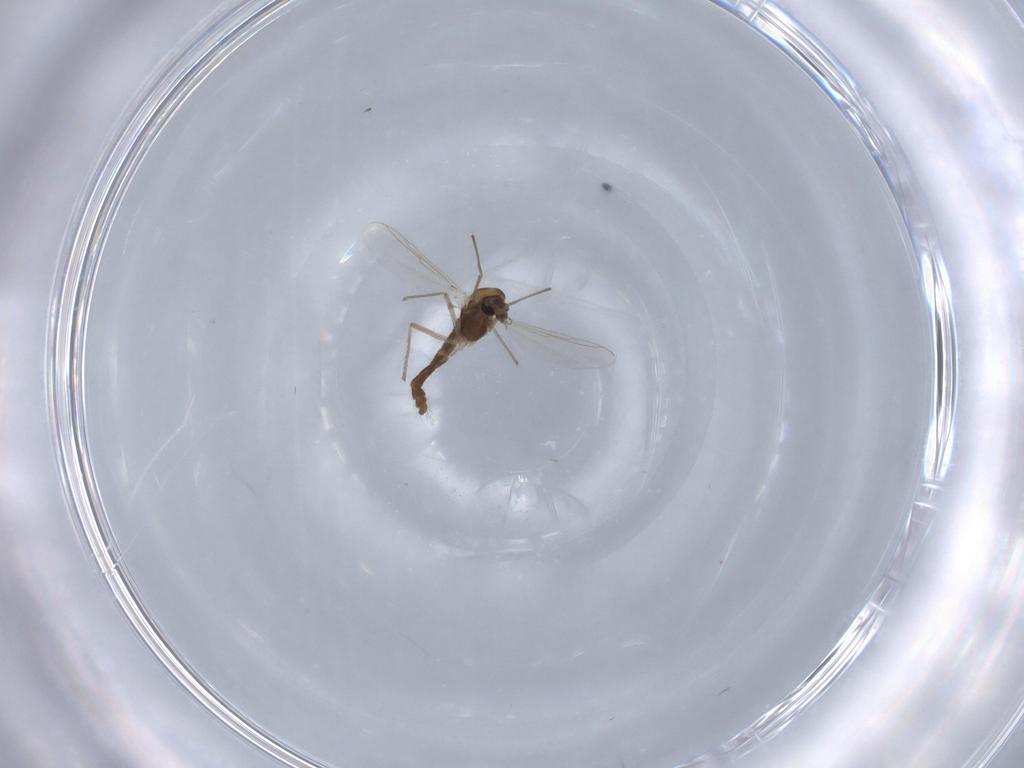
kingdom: Animalia
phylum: Arthropoda
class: Insecta
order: Diptera
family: Chironomidae
